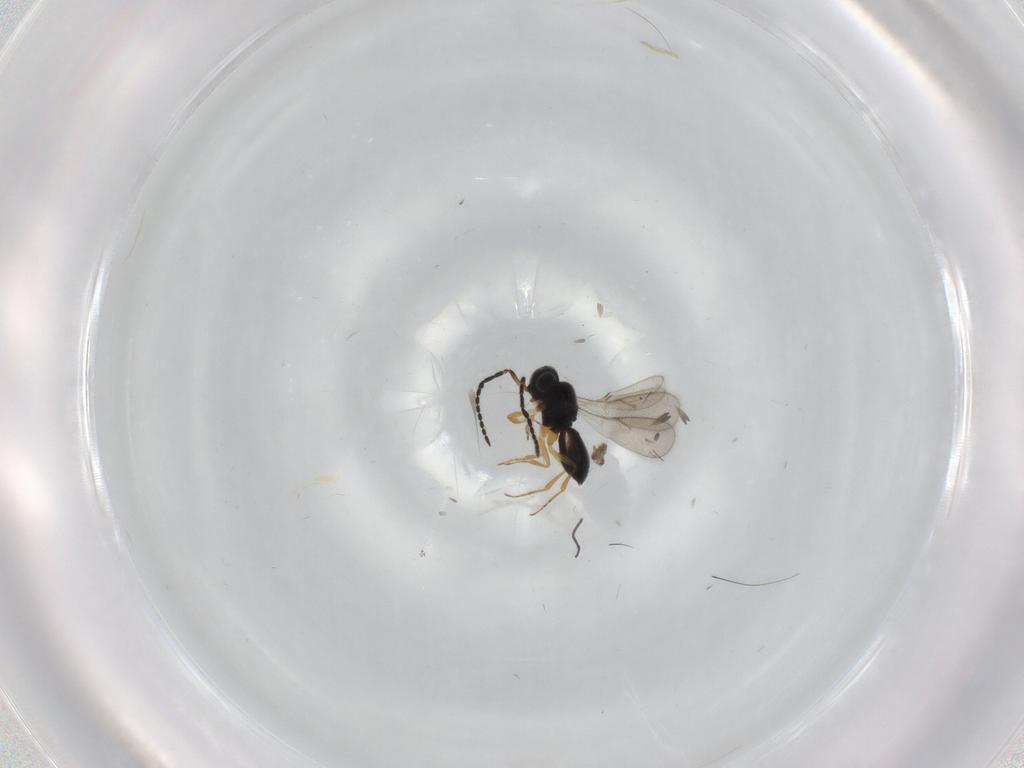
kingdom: Animalia
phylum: Arthropoda
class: Insecta
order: Hymenoptera
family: Scelionidae
